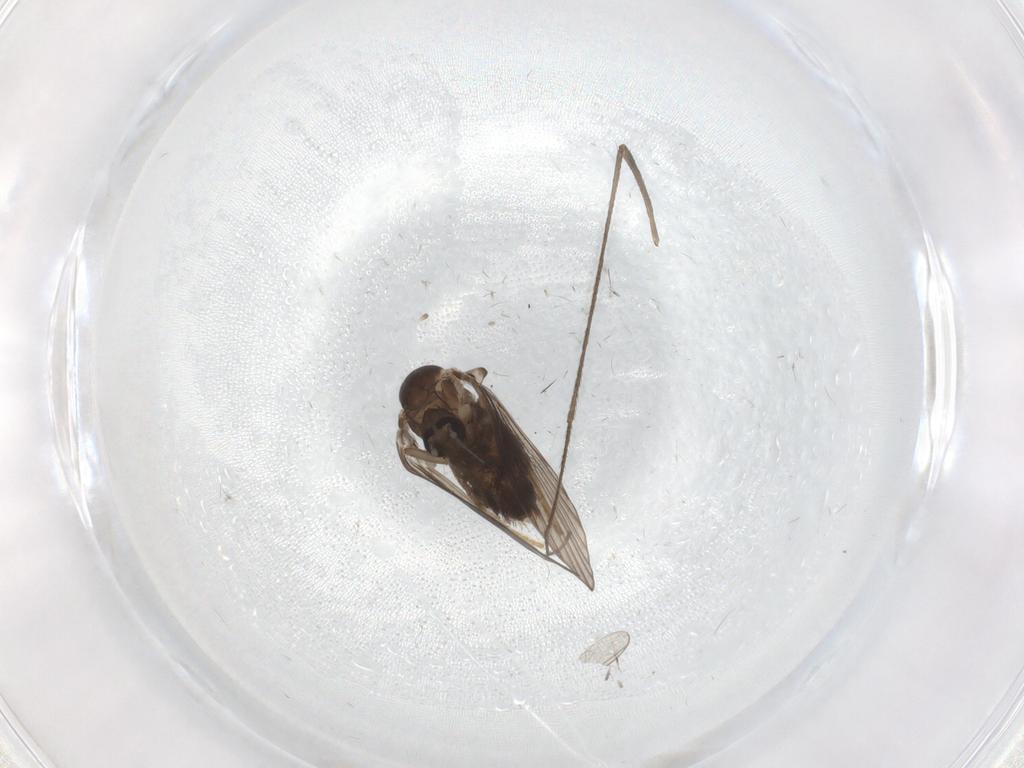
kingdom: Animalia
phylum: Arthropoda
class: Insecta
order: Diptera
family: Psychodidae
